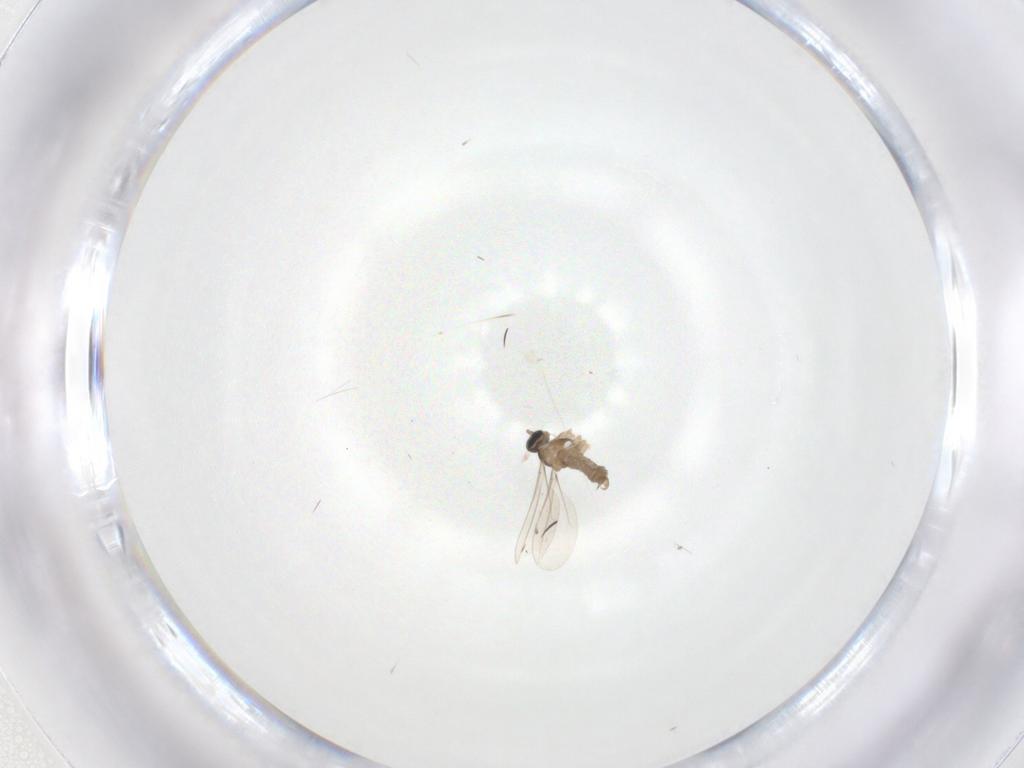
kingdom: Animalia
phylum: Arthropoda
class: Insecta
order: Diptera
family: Cecidomyiidae
